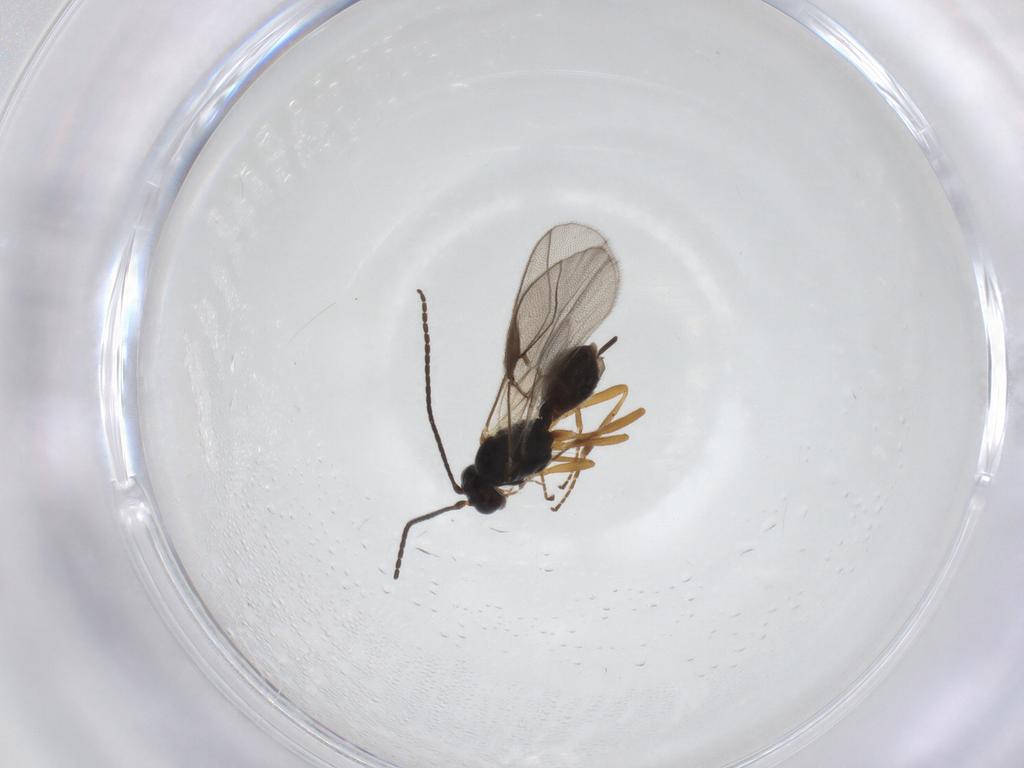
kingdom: Animalia
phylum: Arthropoda
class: Insecta
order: Hymenoptera
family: Braconidae
